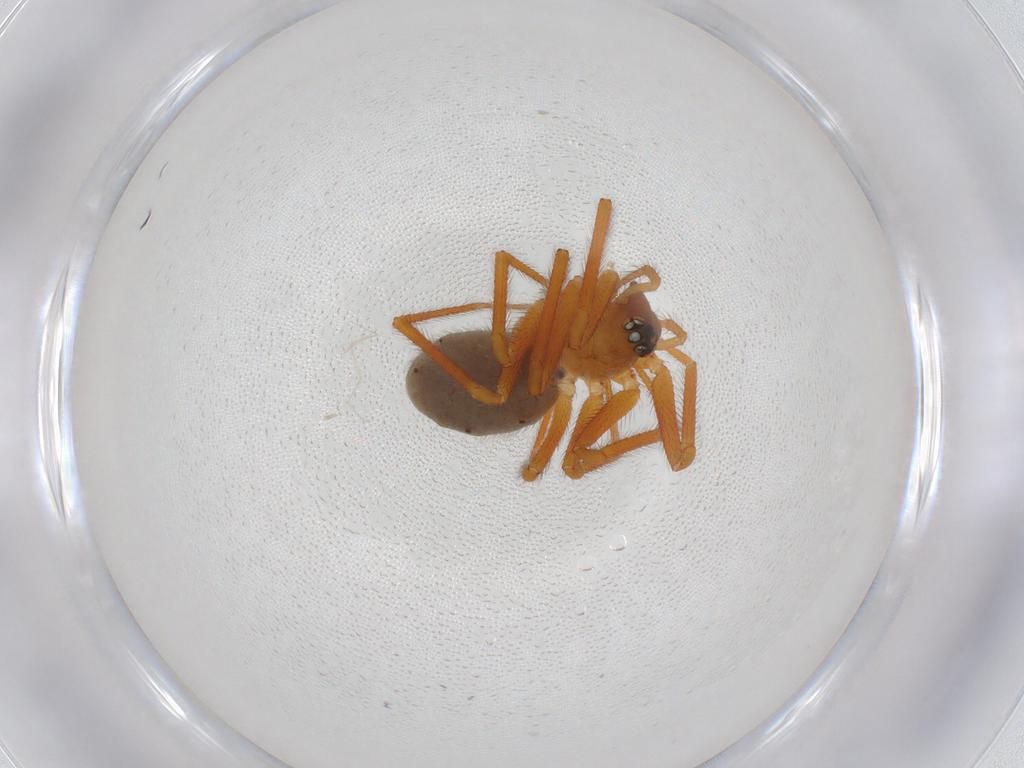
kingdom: Animalia
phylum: Arthropoda
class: Arachnida
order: Araneae
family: Linyphiidae
